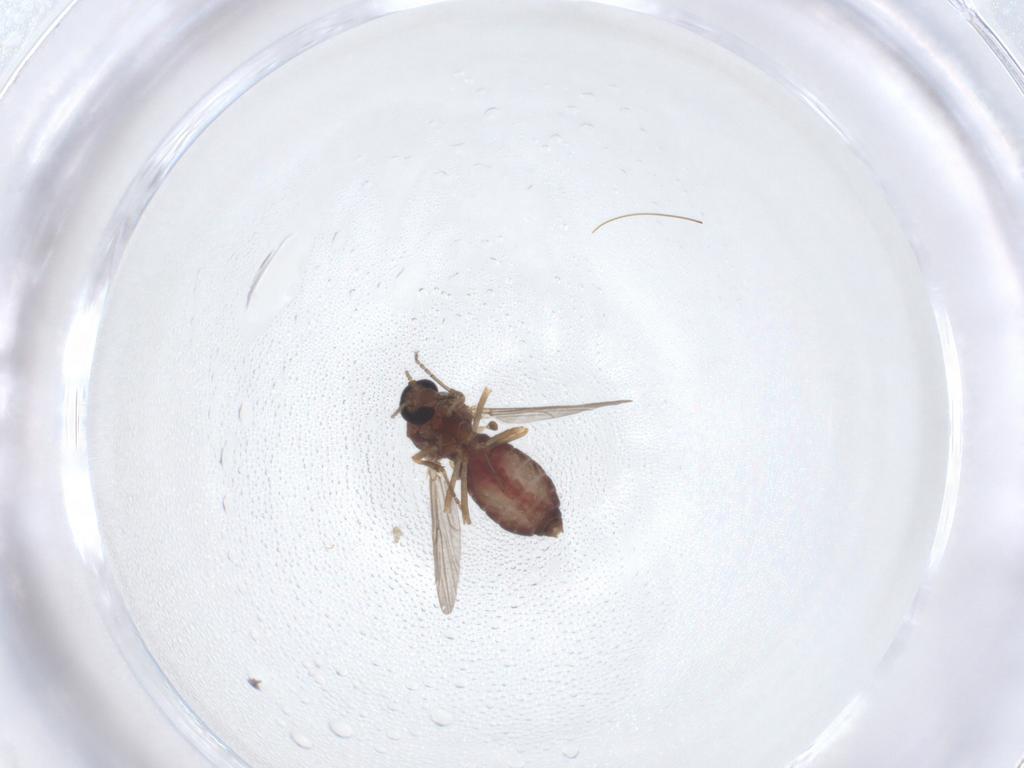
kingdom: Animalia
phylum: Arthropoda
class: Insecta
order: Diptera
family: Ceratopogonidae
